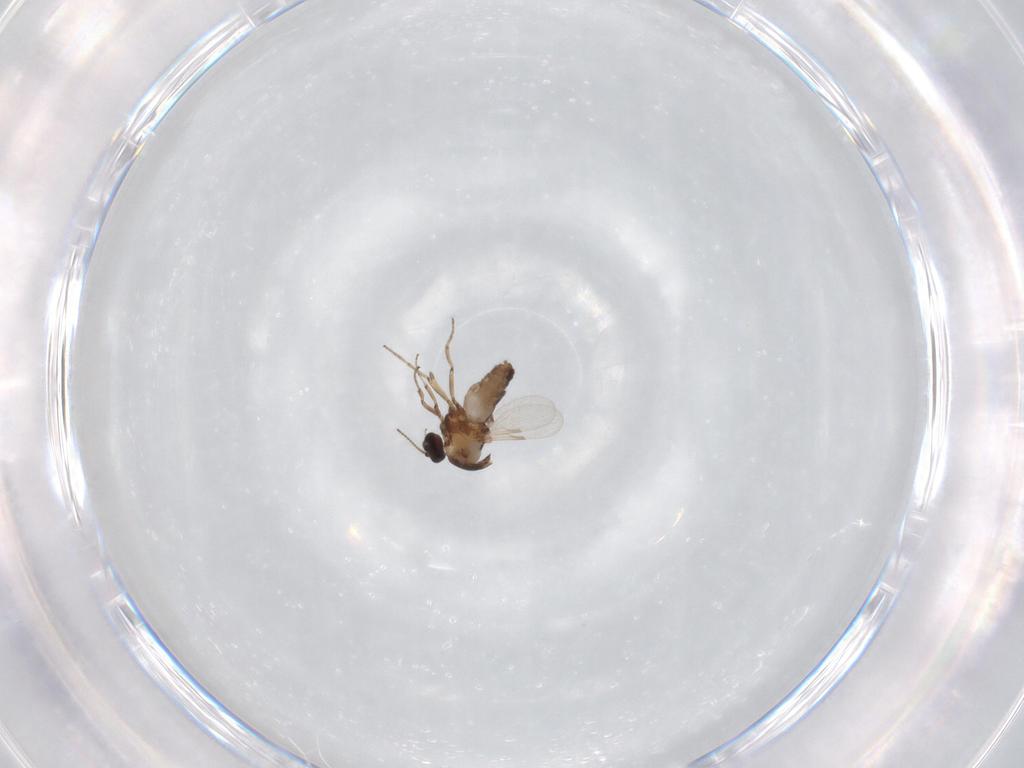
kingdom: Animalia
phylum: Arthropoda
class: Insecta
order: Diptera
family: Ceratopogonidae
